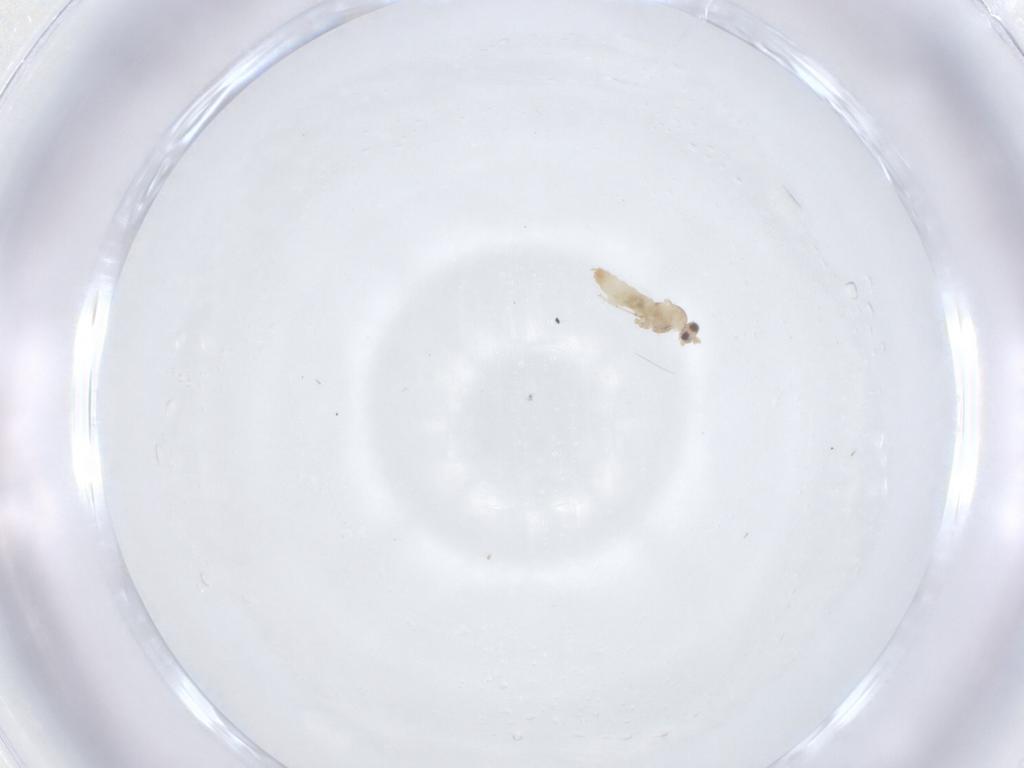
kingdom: Animalia
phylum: Arthropoda
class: Insecta
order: Diptera
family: Cecidomyiidae
